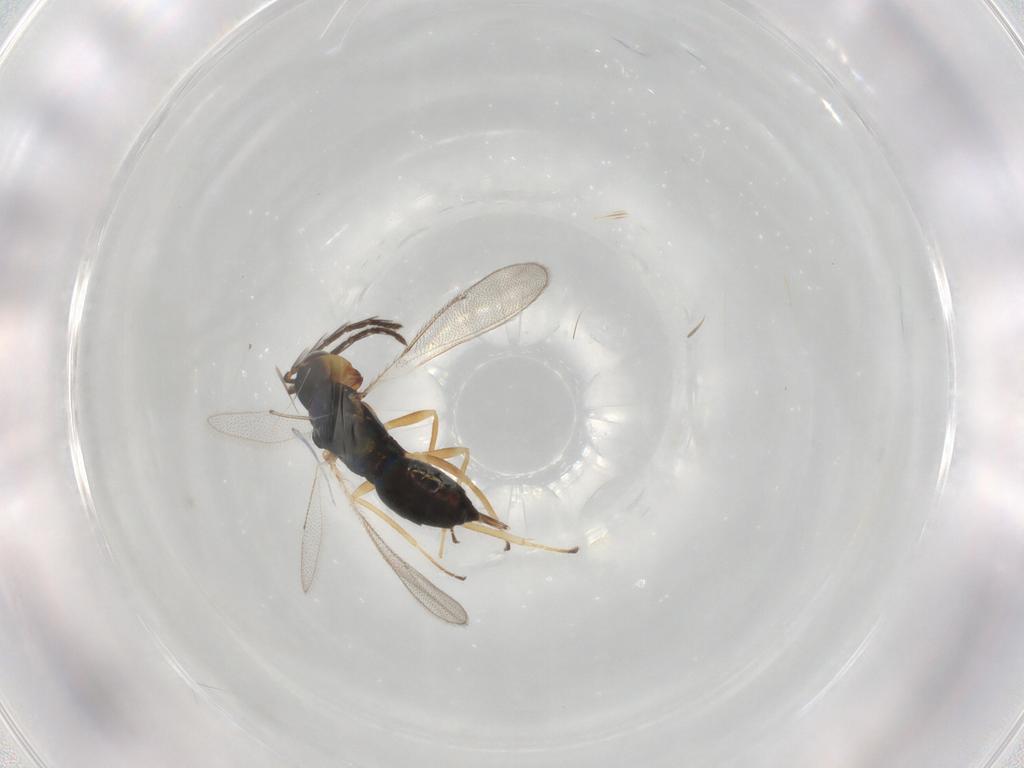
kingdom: Animalia
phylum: Arthropoda
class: Insecta
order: Hymenoptera
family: Eulophidae
